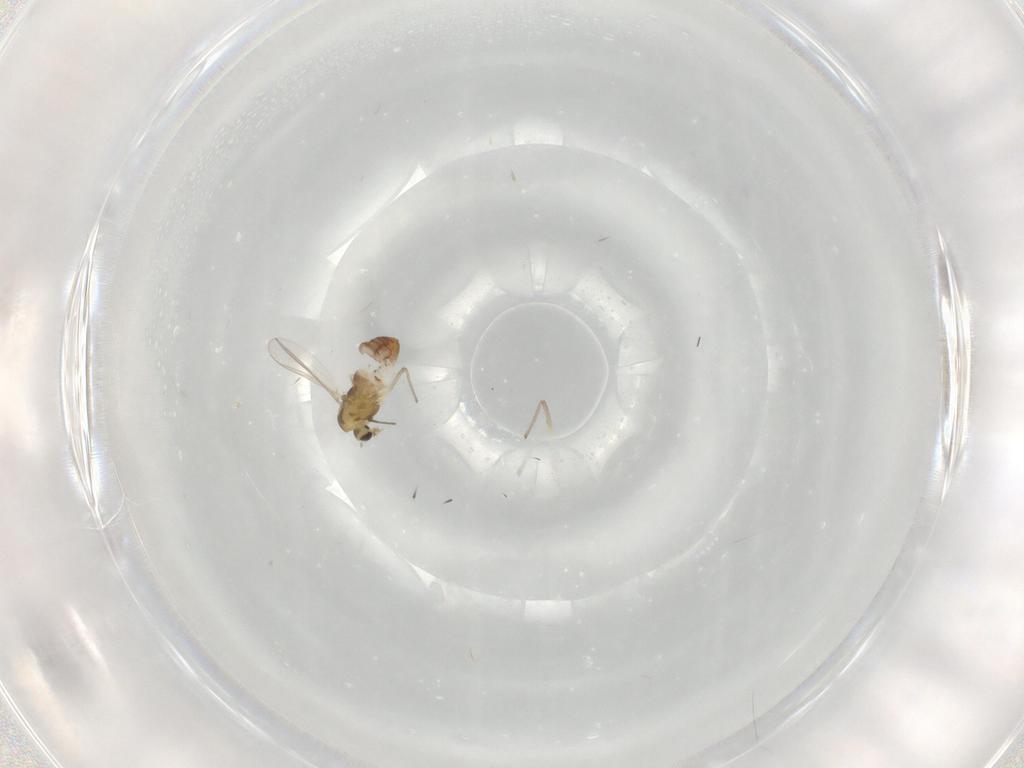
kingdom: Animalia
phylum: Arthropoda
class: Insecta
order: Diptera
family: Chironomidae
